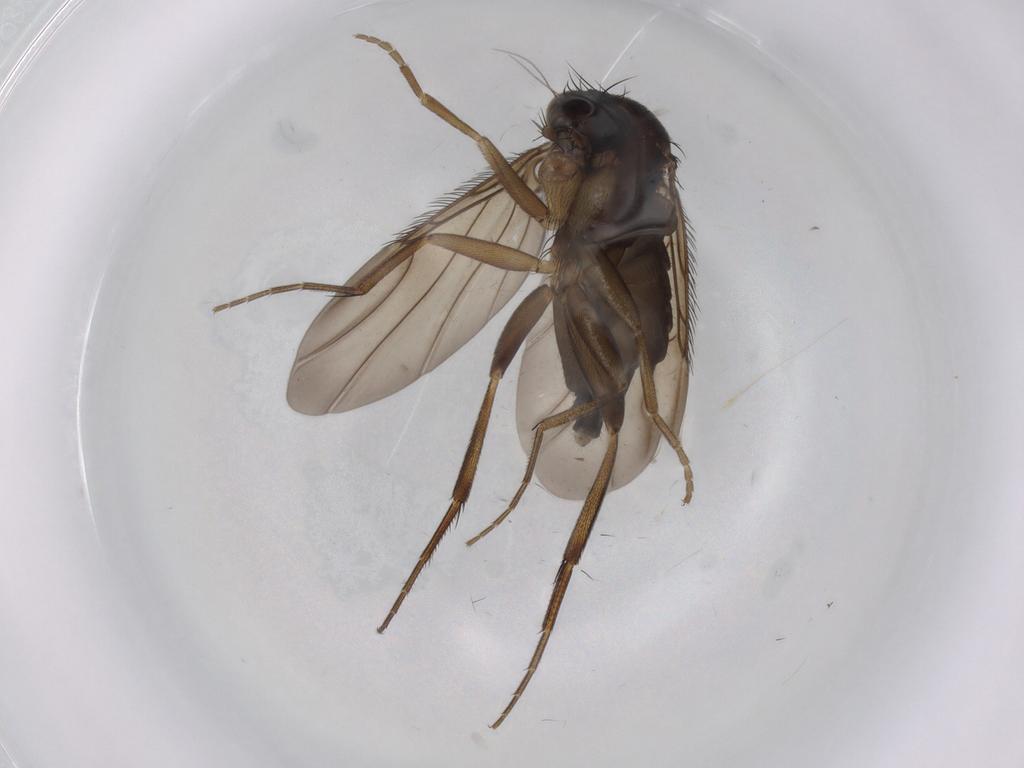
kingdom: Animalia
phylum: Arthropoda
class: Insecta
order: Diptera
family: Phoridae
